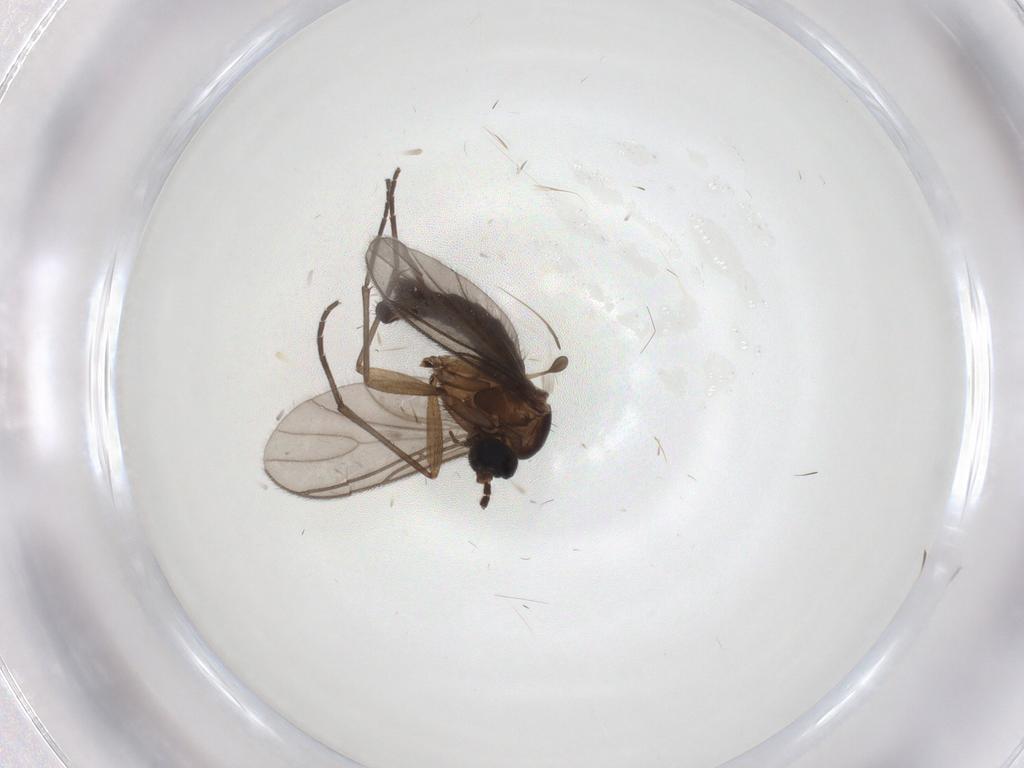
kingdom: Animalia
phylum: Arthropoda
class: Insecta
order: Diptera
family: Sciaridae
